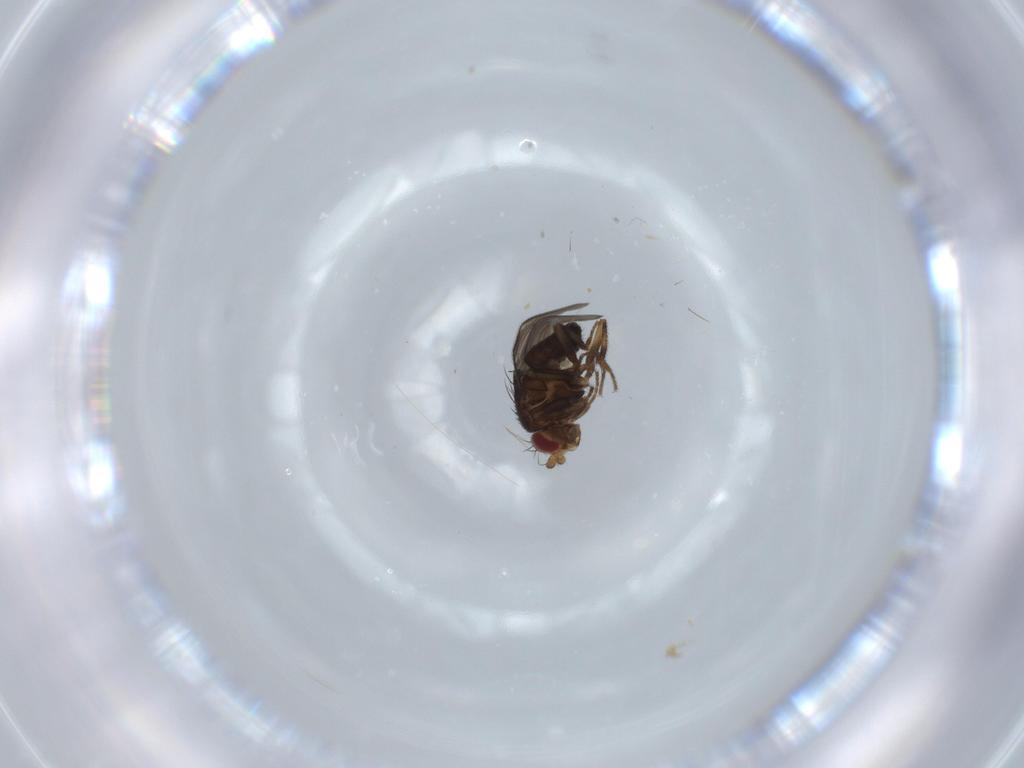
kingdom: Animalia
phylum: Arthropoda
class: Insecta
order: Diptera
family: Sphaeroceridae
